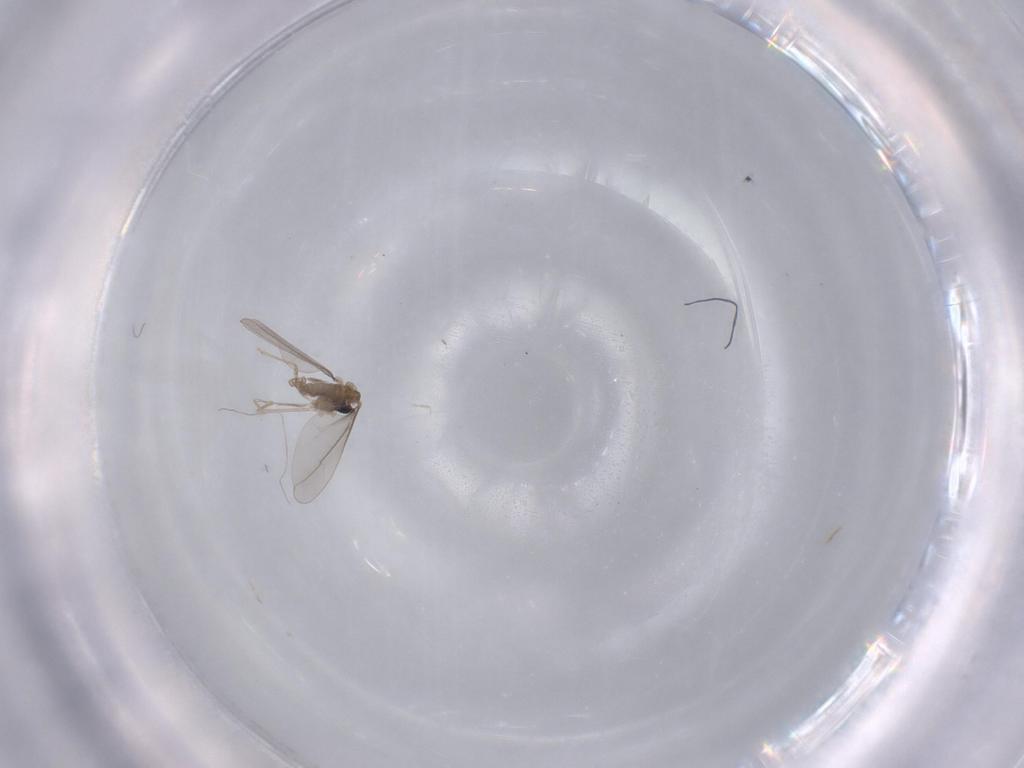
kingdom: Animalia
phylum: Arthropoda
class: Insecta
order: Diptera
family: Cecidomyiidae
